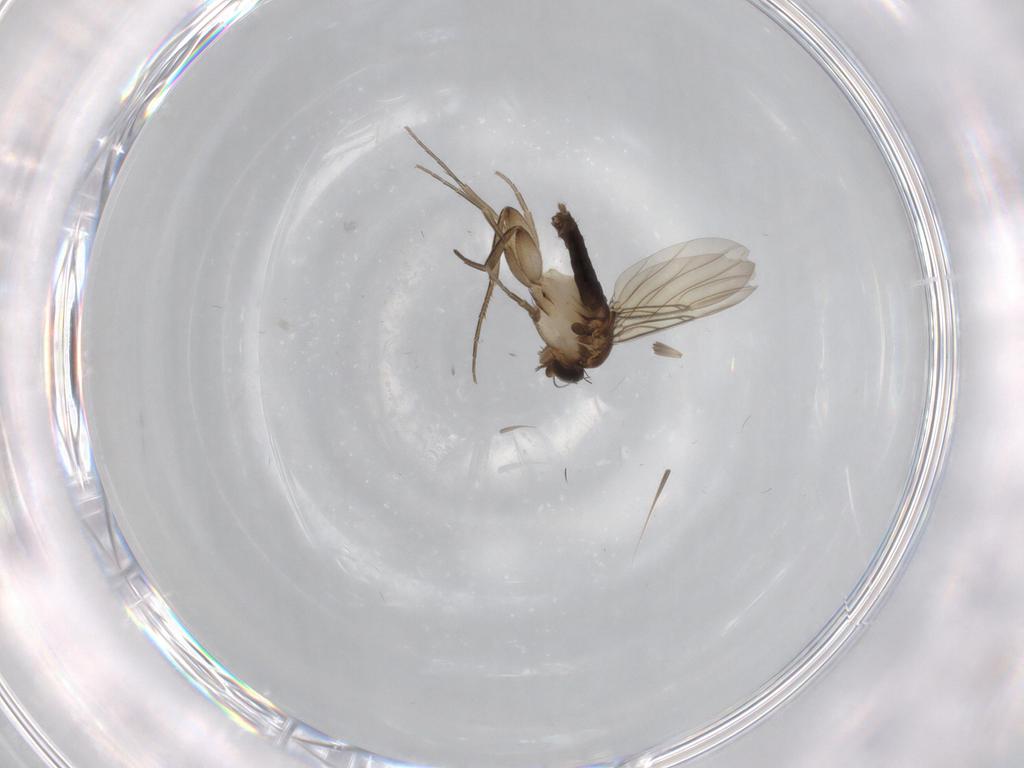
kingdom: Animalia
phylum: Arthropoda
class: Insecta
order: Diptera
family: Phoridae
